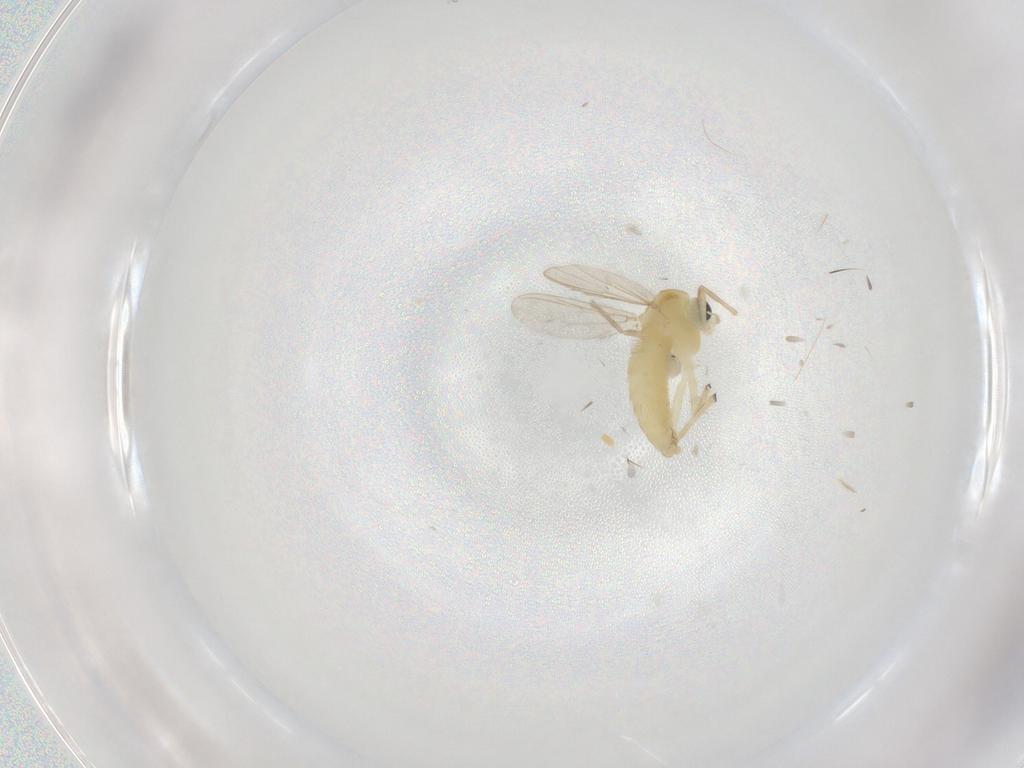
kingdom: Animalia
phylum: Arthropoda
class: Insecta
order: Diptera
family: Chironomidae
